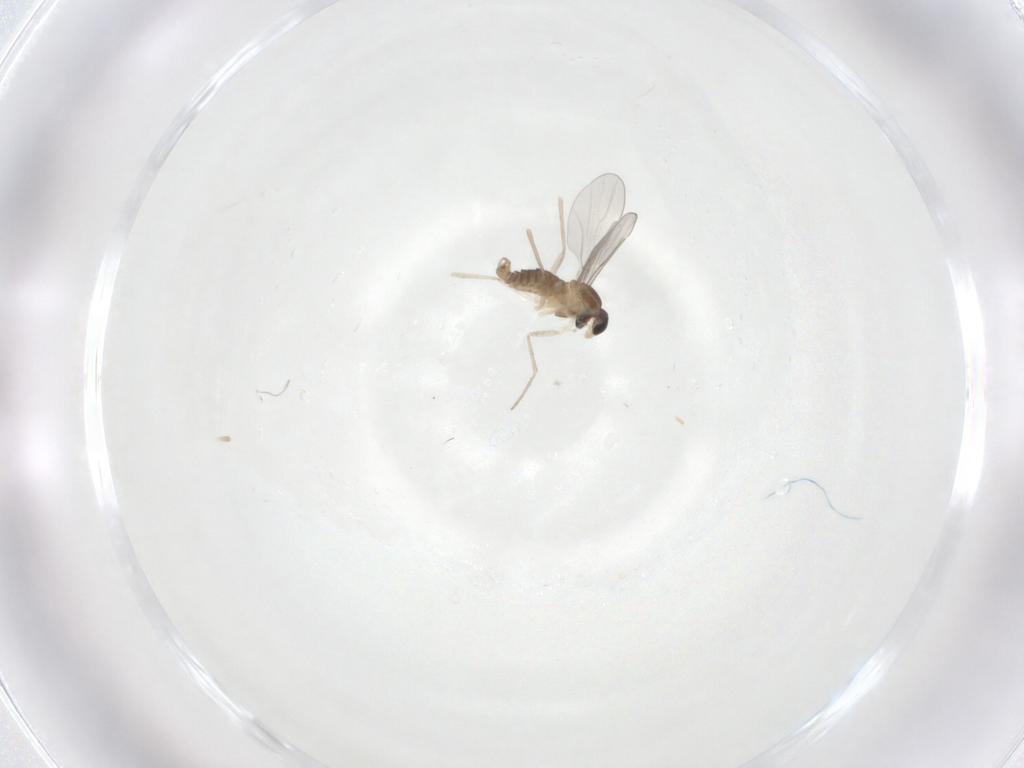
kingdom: Animalia
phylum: Arthropoda
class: Insecta
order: Diptera
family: Cecidomyiidae
